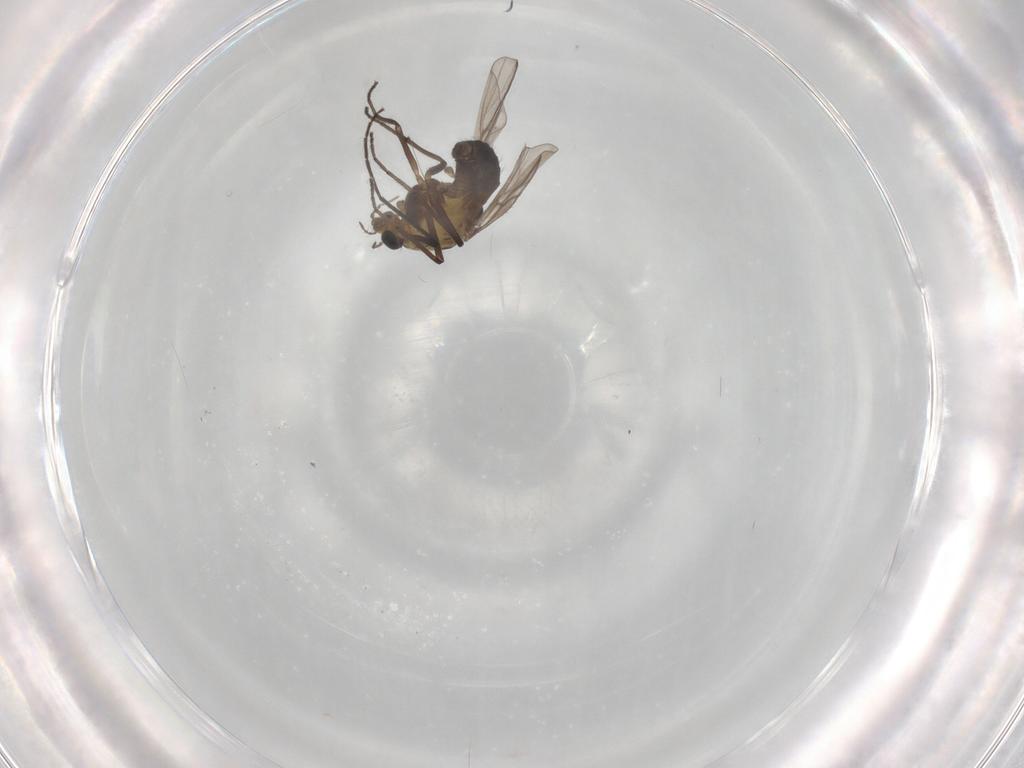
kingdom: Animalia
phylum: Arthropoda
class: Insecta
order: Diptera
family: Chironomidae
